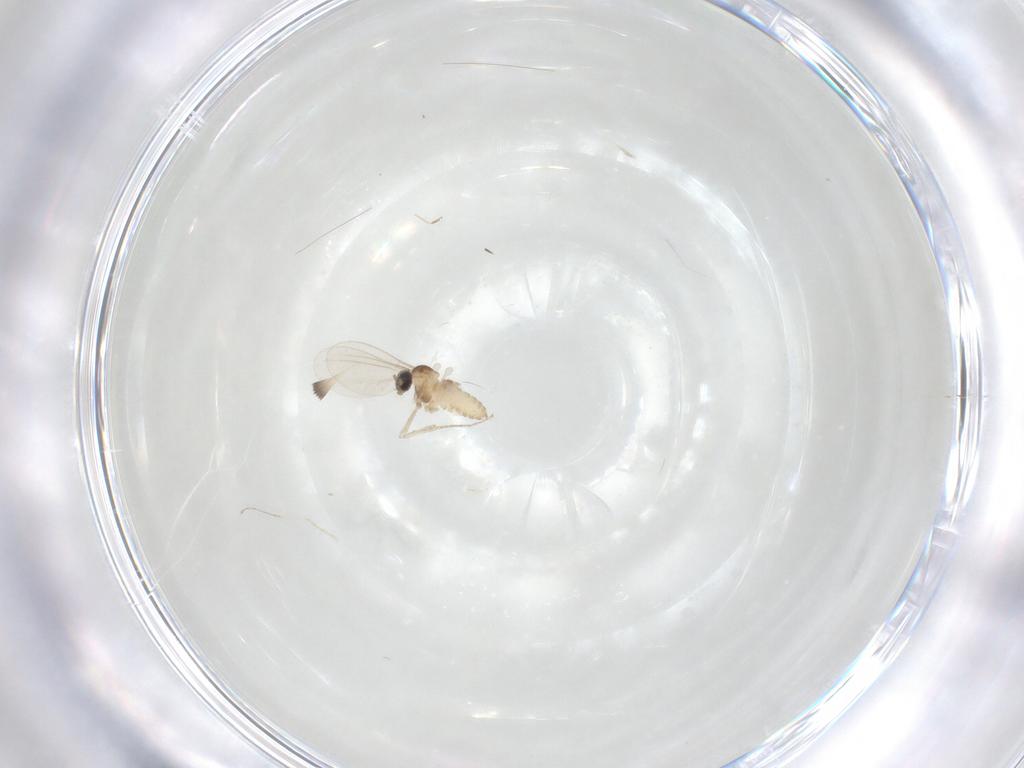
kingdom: Animalia
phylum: Arthropoda
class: Insecta
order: Diptera
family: Cecidomyiidae
